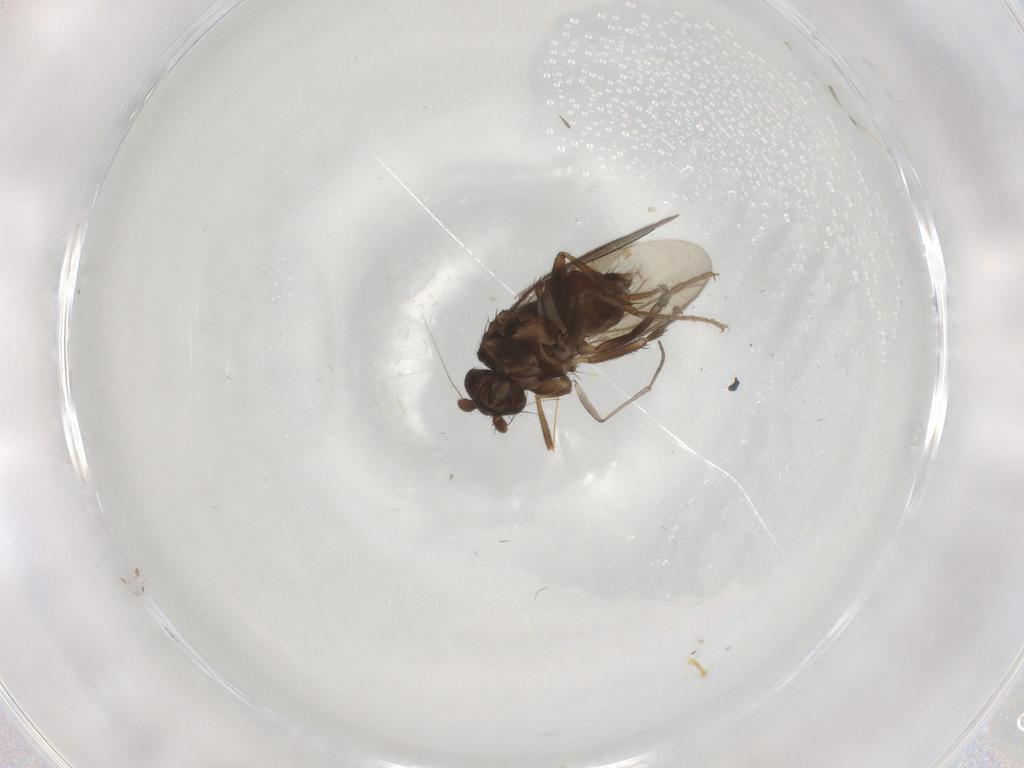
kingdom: Animalia
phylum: Arthropoda
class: Insecta
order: Diptera
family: Sphaeroceridae
